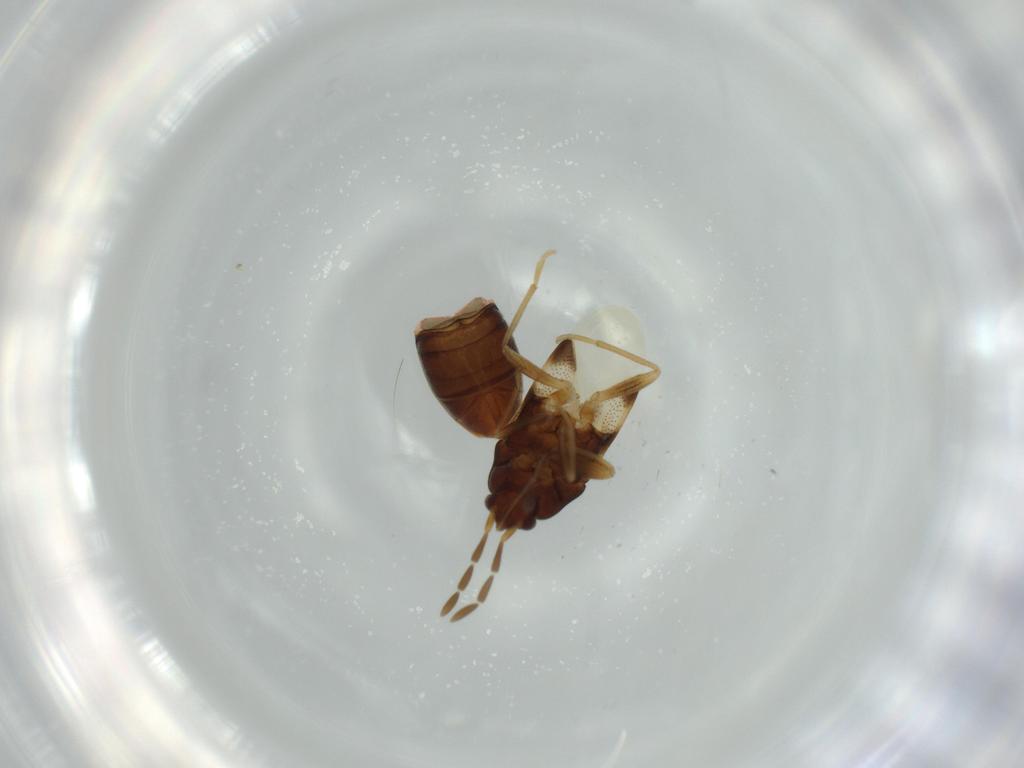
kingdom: Animalia
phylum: Arthropoda
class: Insecta
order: Hemiptera
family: Rhyparochromidae
